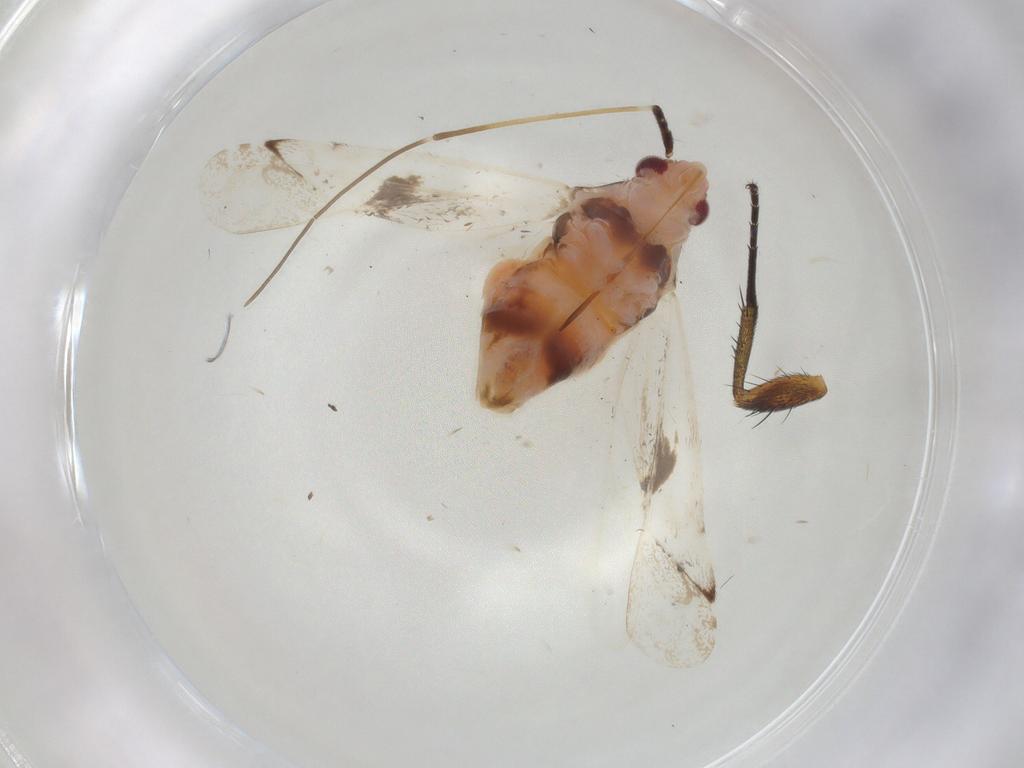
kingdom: Animalia
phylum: Arthropoda
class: Insecta
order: Hemiptera
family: Miridae
